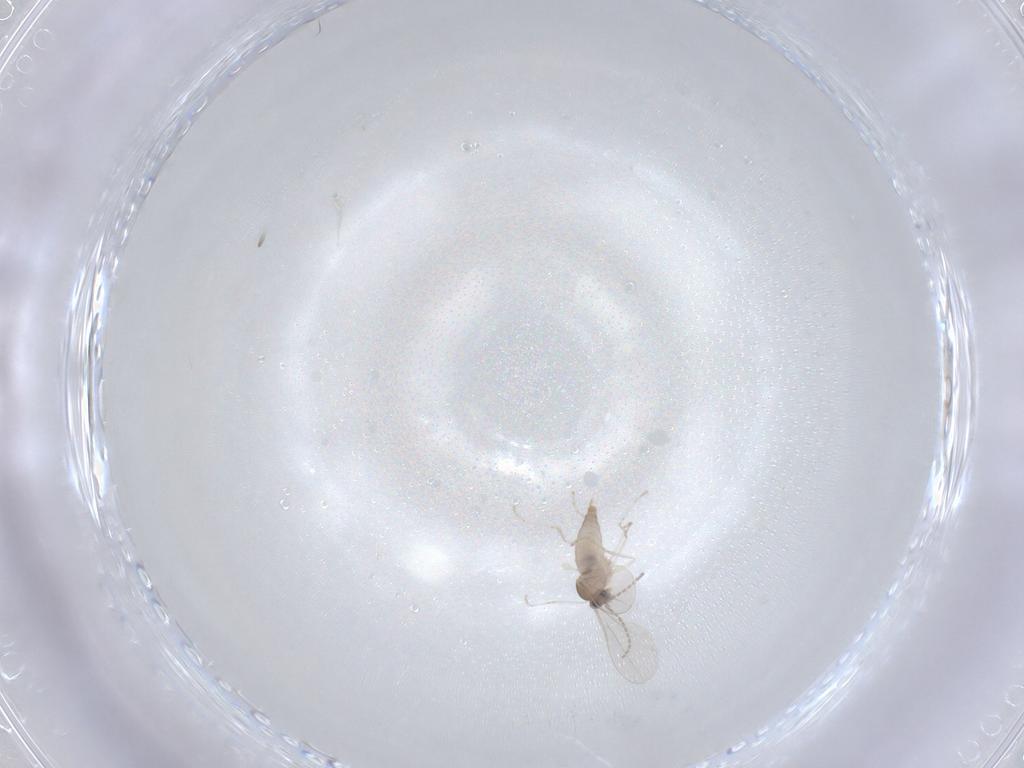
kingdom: Animalia
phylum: Arthropoda
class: Insecta
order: Diptera
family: Cecidomyiidae
